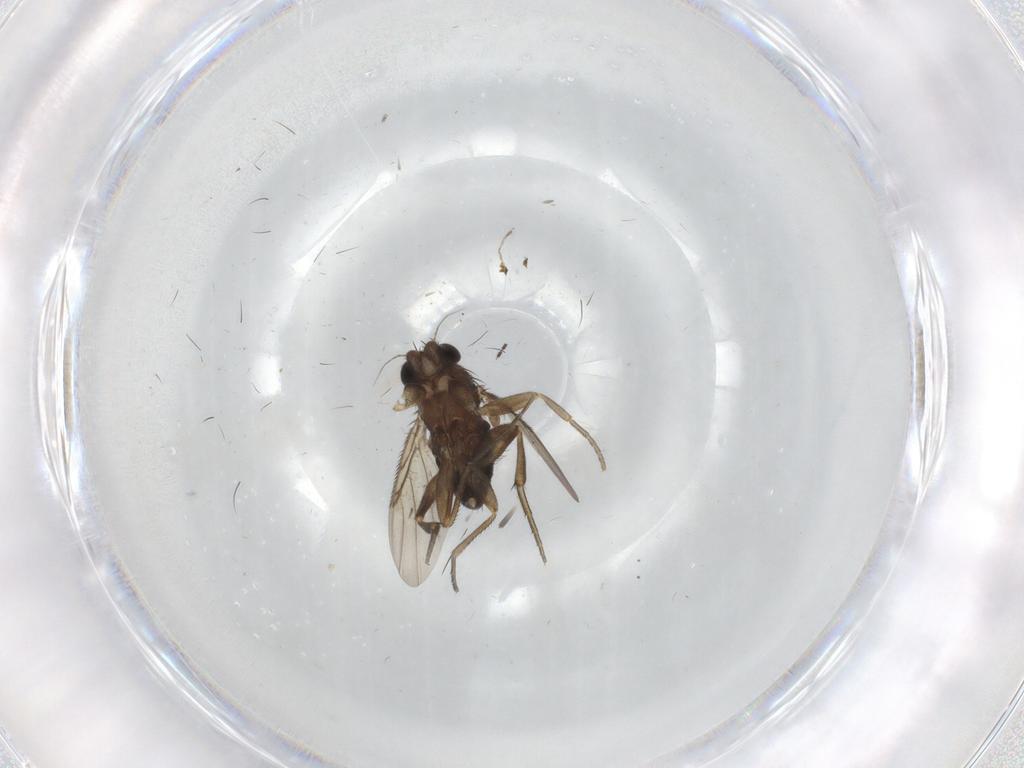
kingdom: Animalia
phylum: Arthropoda
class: Insecta
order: Diptera
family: Phoridae
